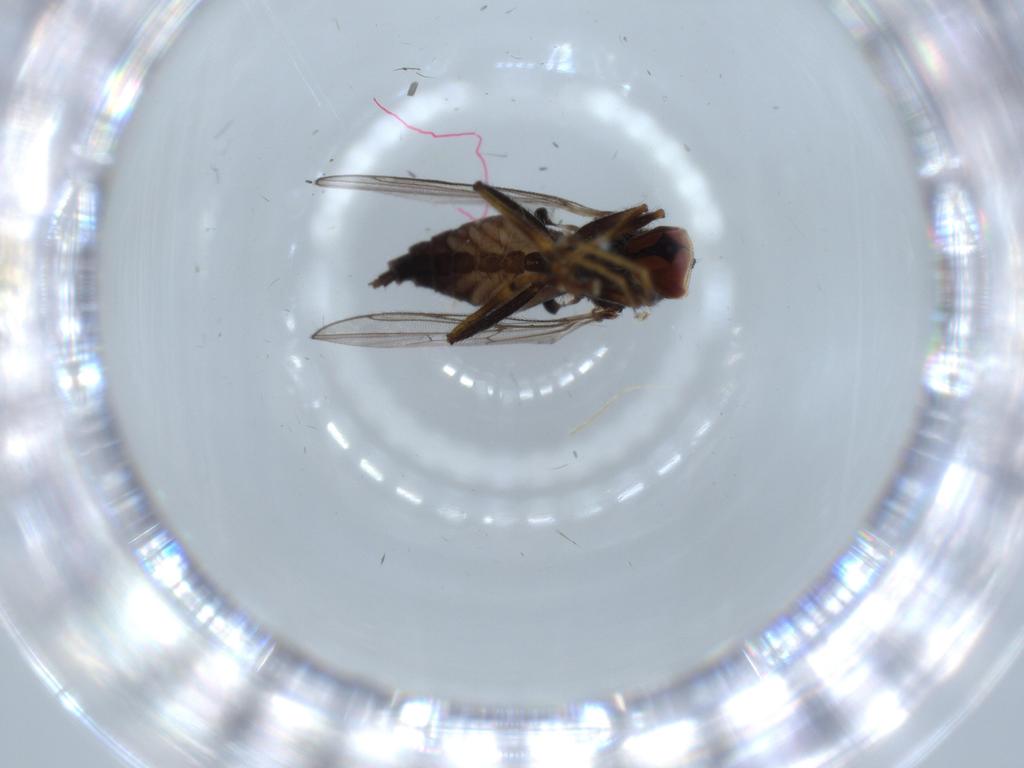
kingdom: Animalia
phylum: Arthropoda
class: Insecta
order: Diptera
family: Hybotidae
